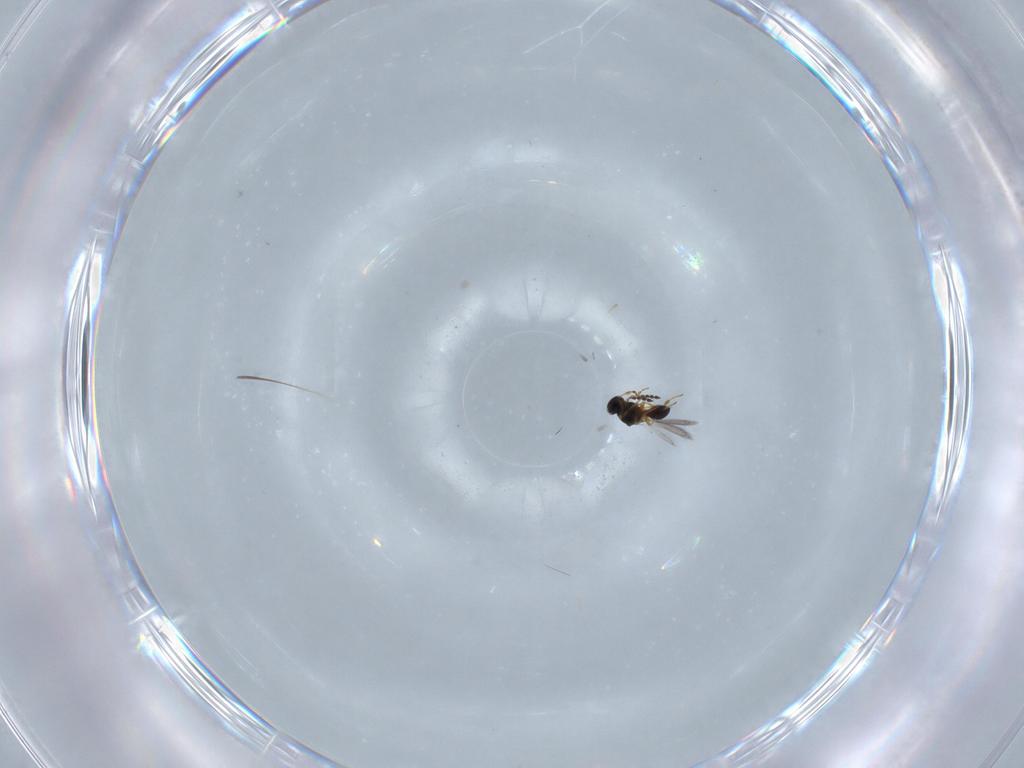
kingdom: Animalia
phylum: Arthropoda
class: Insecta
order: Hymenoptera
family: Platygastridae
